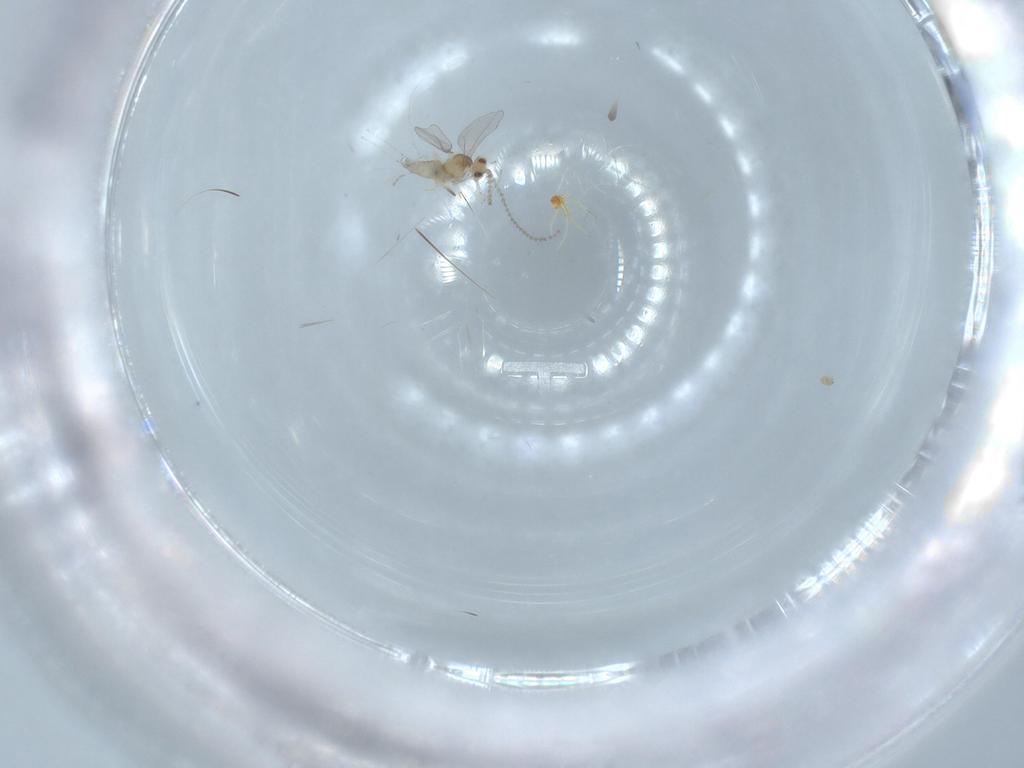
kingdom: Animalia
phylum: Arthropoda
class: Insecta
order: Diptera
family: Cecidomyiidae
